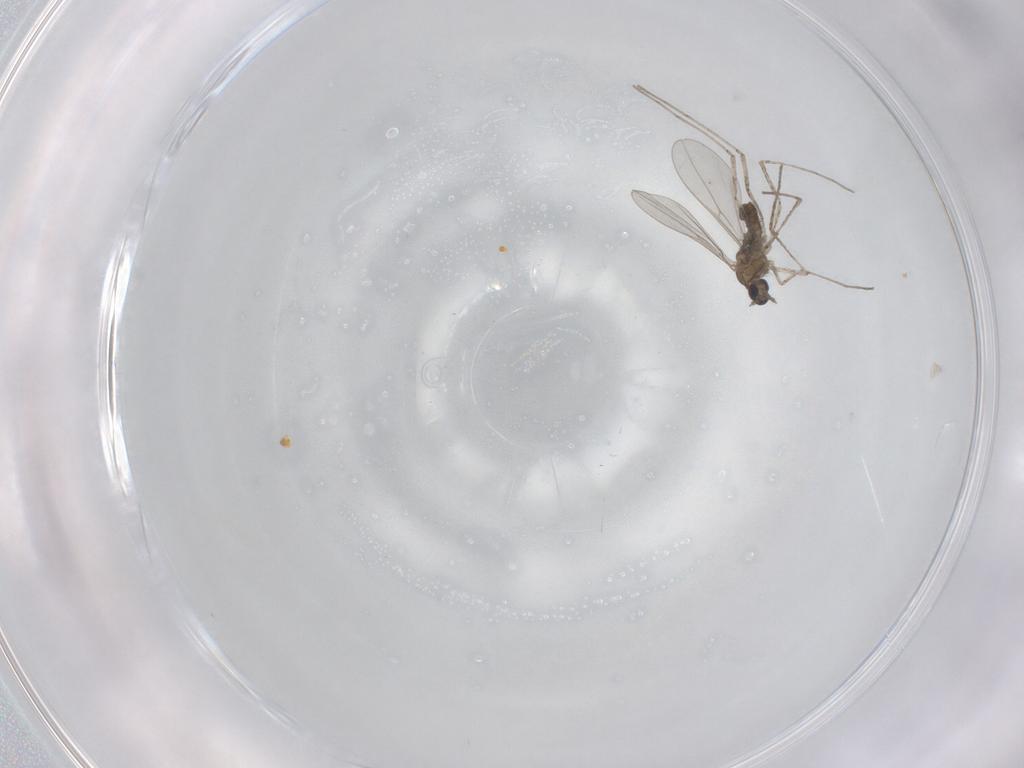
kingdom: Animalia
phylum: Arthropoda
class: Insecta
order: Diptera
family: Cecidomyiidae
